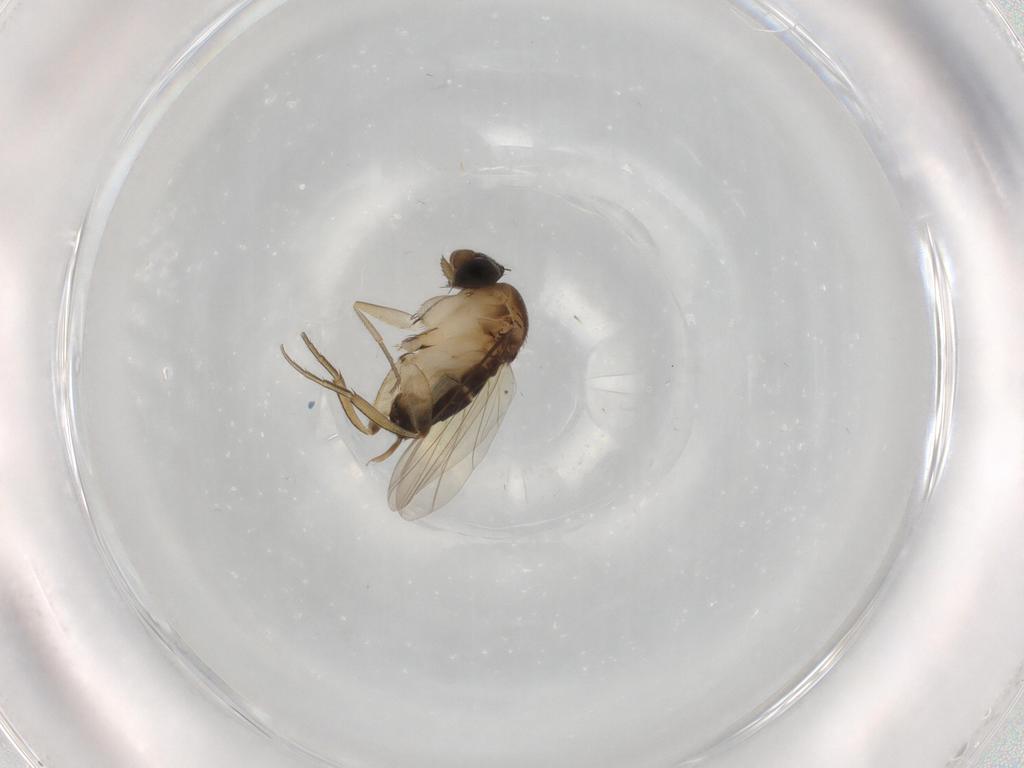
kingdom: Animalia
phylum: Arthropoda
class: Insecta
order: Diptera
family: Phoridae
